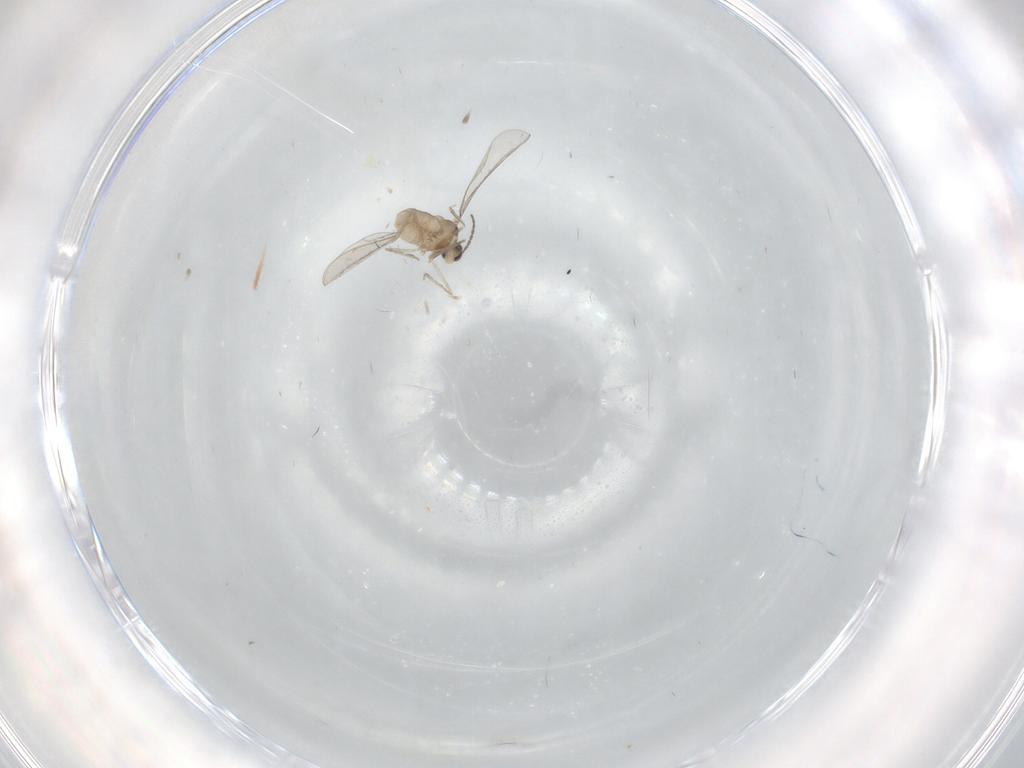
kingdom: Animalia
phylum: Arthropoda
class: Insecta
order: Diptera
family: Cecidomyiidae
